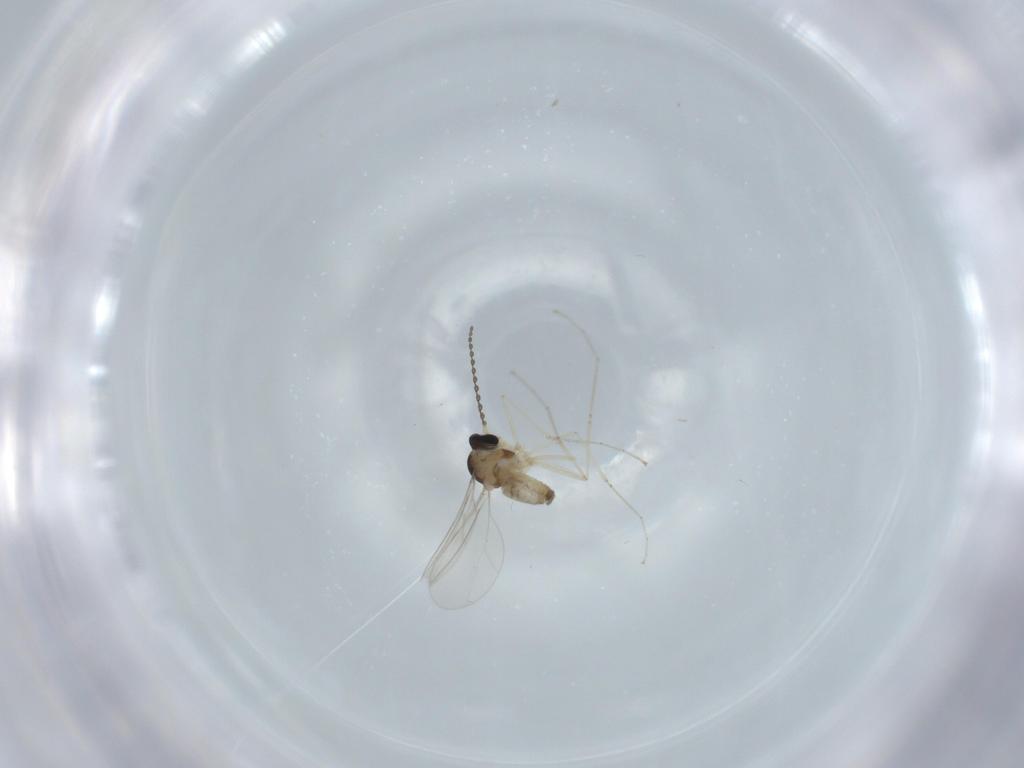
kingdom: Animalia
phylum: Arthropoda
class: Insecta
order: Diptera
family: Cecidomyiidae
